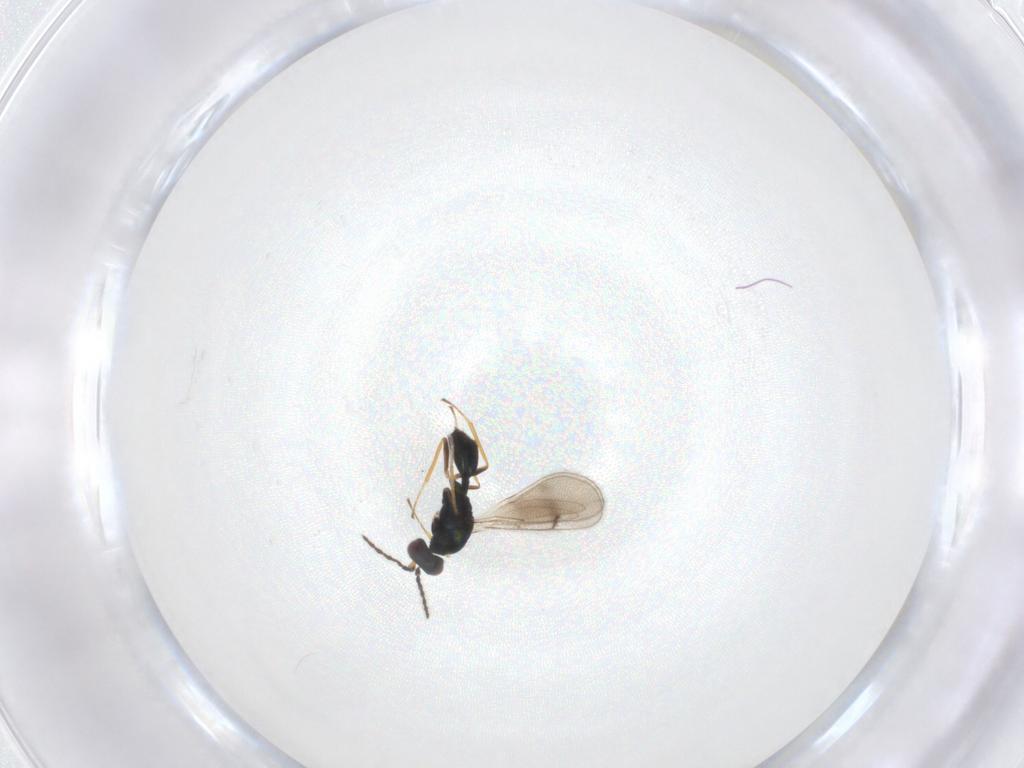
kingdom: Animalia
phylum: Arthropoda
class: Insecta
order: Hymenoptera
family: Eulophidae
